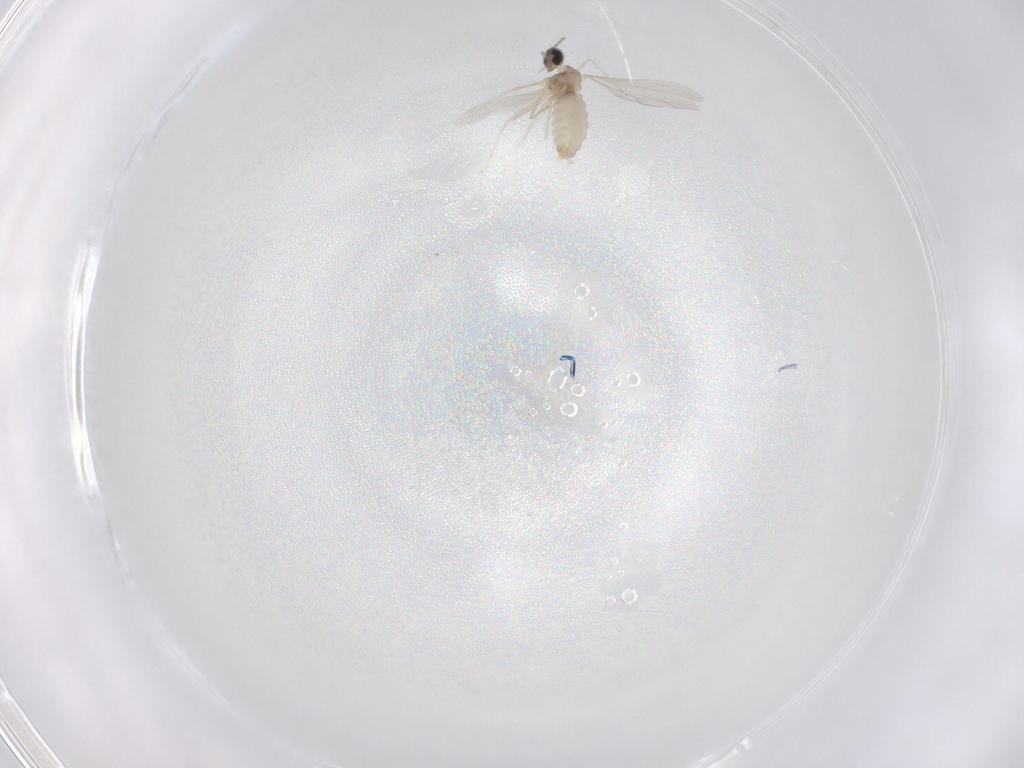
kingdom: Animalia
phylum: Arthropoda
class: Insecta
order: Diptera
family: Cecidomyiidae
